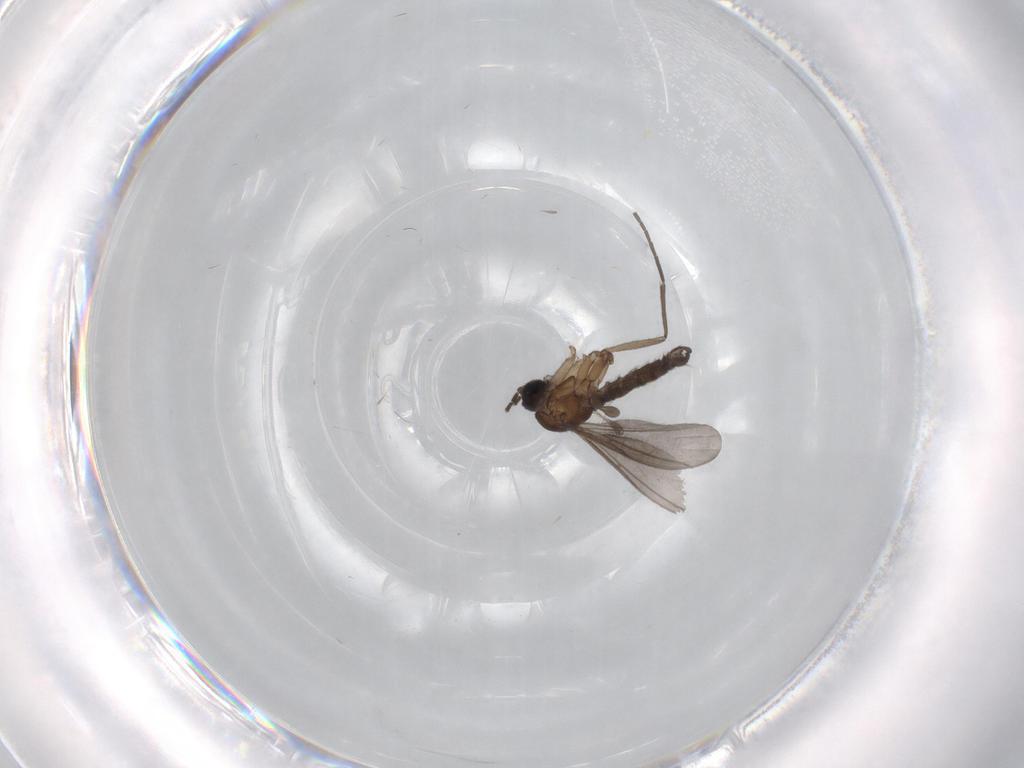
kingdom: Animalia
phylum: Arthropoda
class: Insecta
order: Diptera
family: Sciaridae
